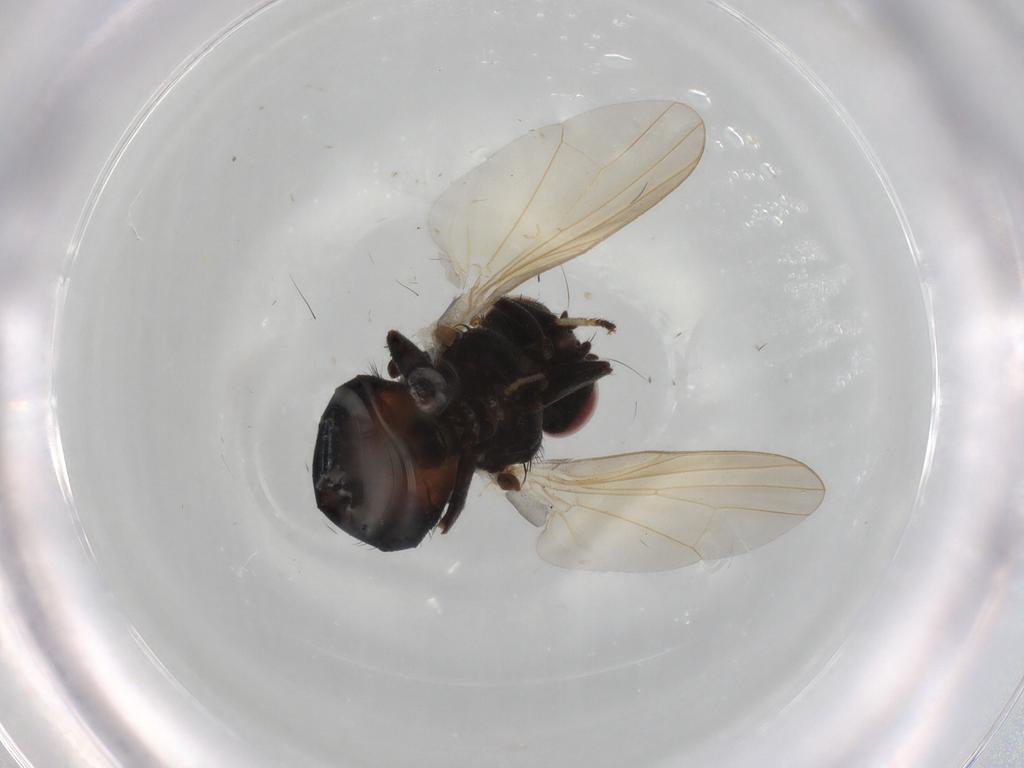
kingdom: Animalia
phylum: Arthropoda
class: Insecta
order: Diptera
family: Lonchaeidae
